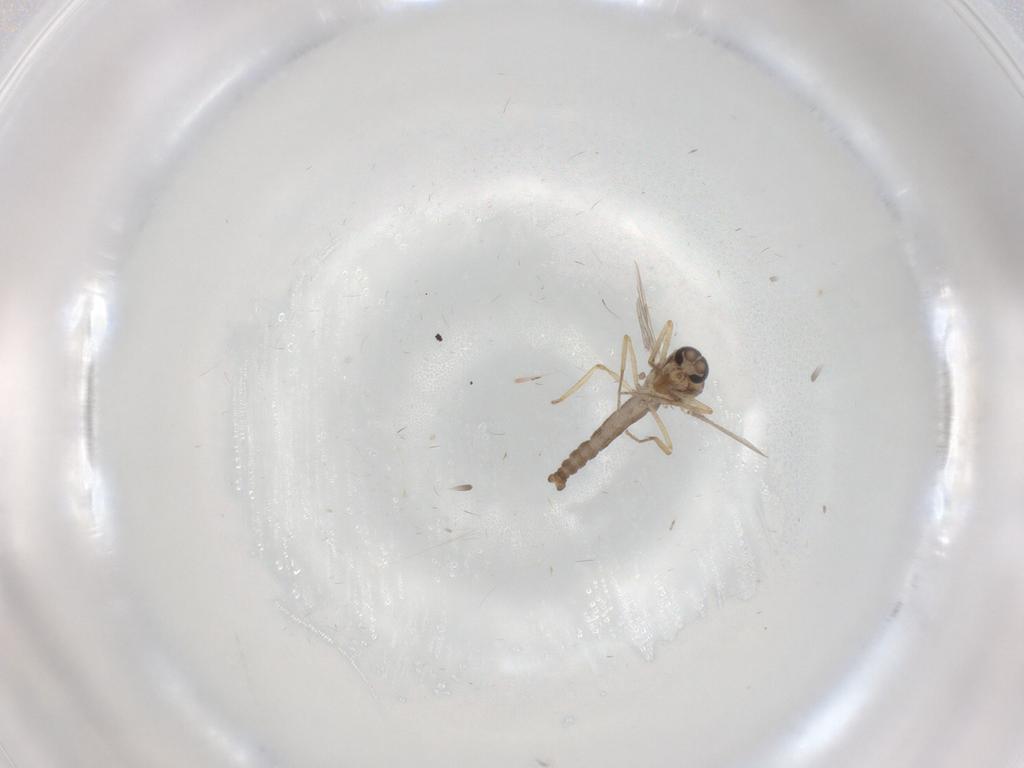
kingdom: Animalia
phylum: Arthropoda
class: Insecta
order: Diptera
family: Ceratopogonidae
